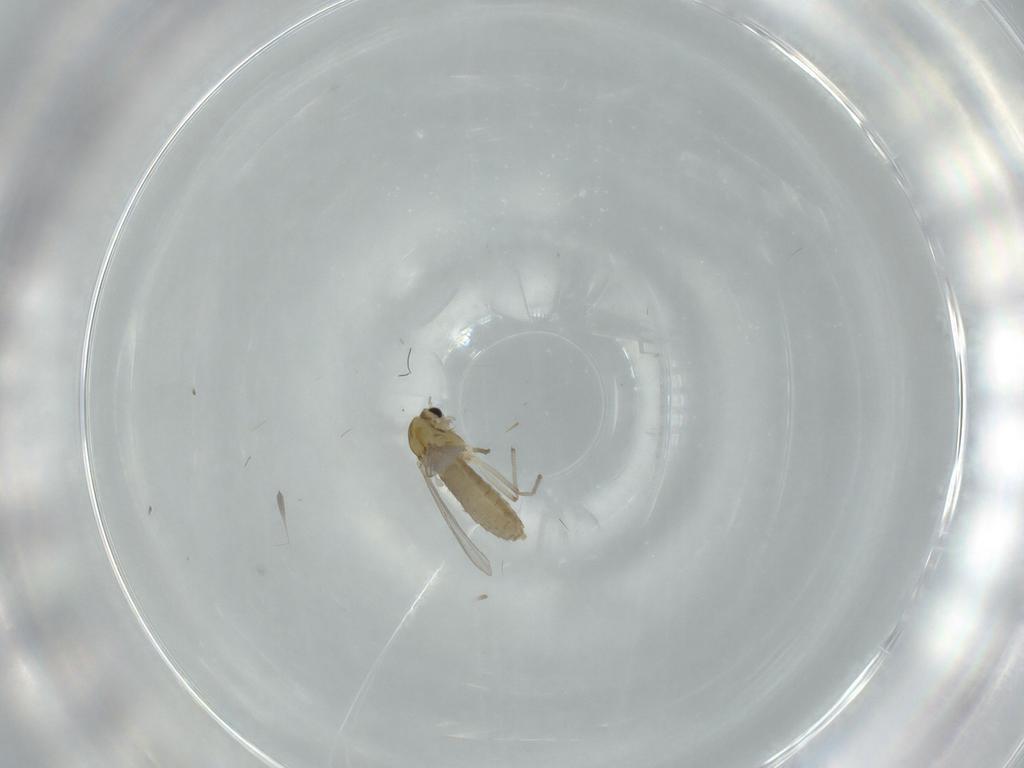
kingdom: Animalia
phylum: Arthropoda
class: Insecta
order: Diptera
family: Chironomidae
